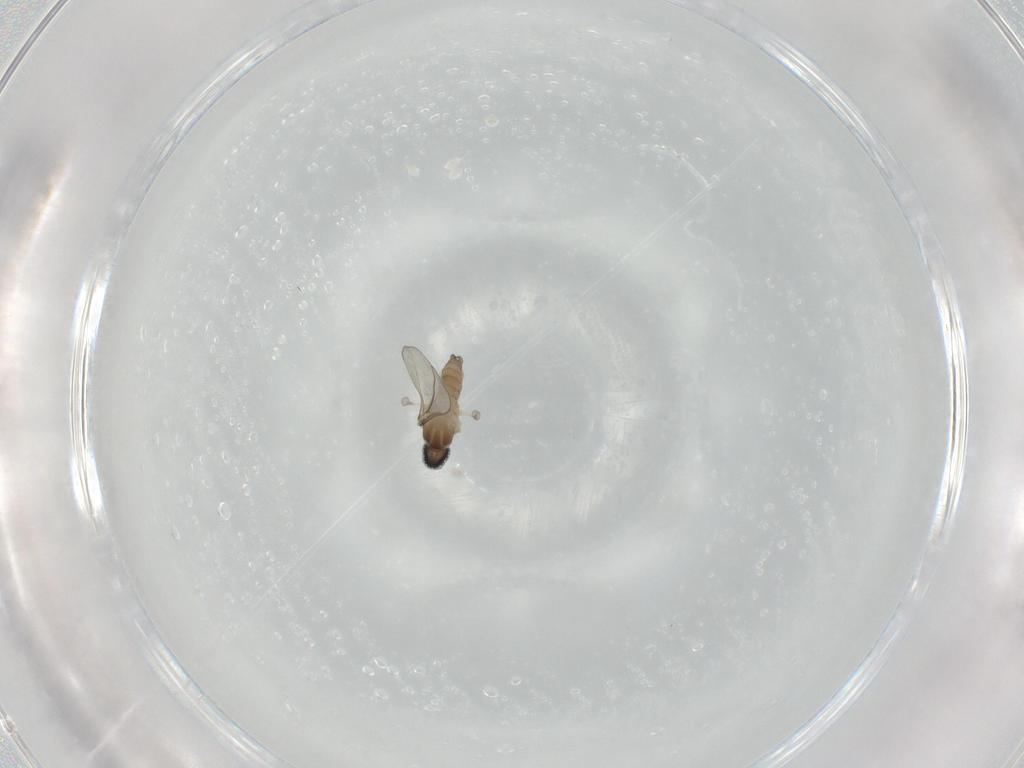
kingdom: Animalia
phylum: Arthropoda
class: Insecta
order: Diptera
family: Cecidomyiidae
